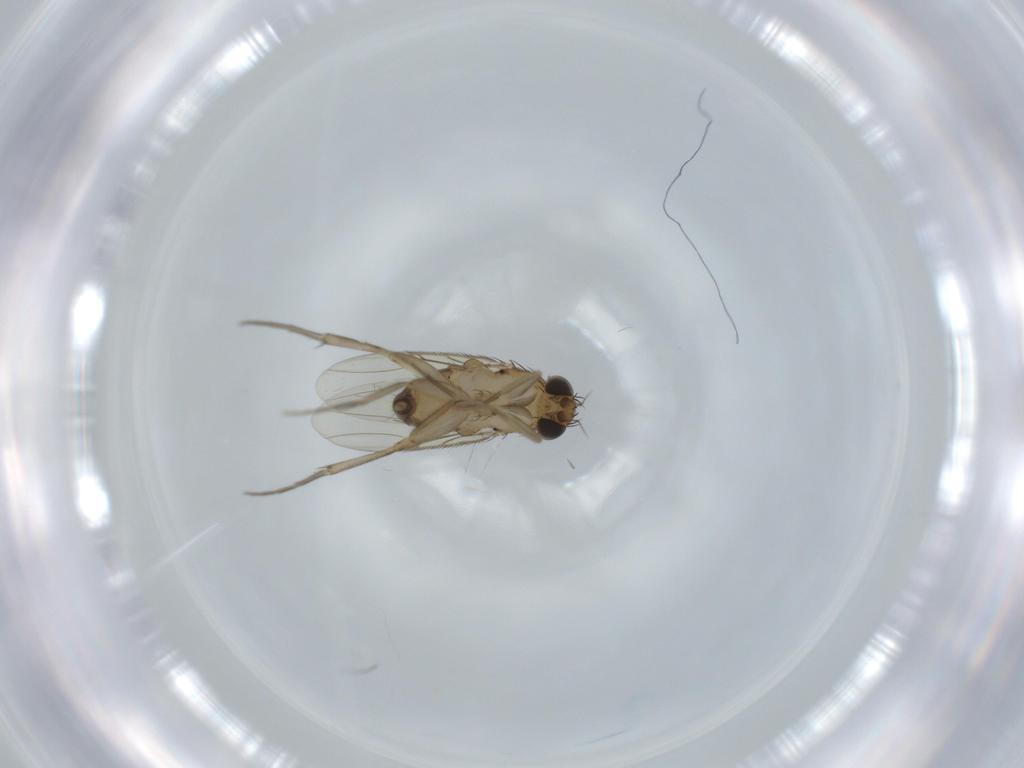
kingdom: Animalia
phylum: Arthropoda
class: Insecta
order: Diptera
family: Phoridae
